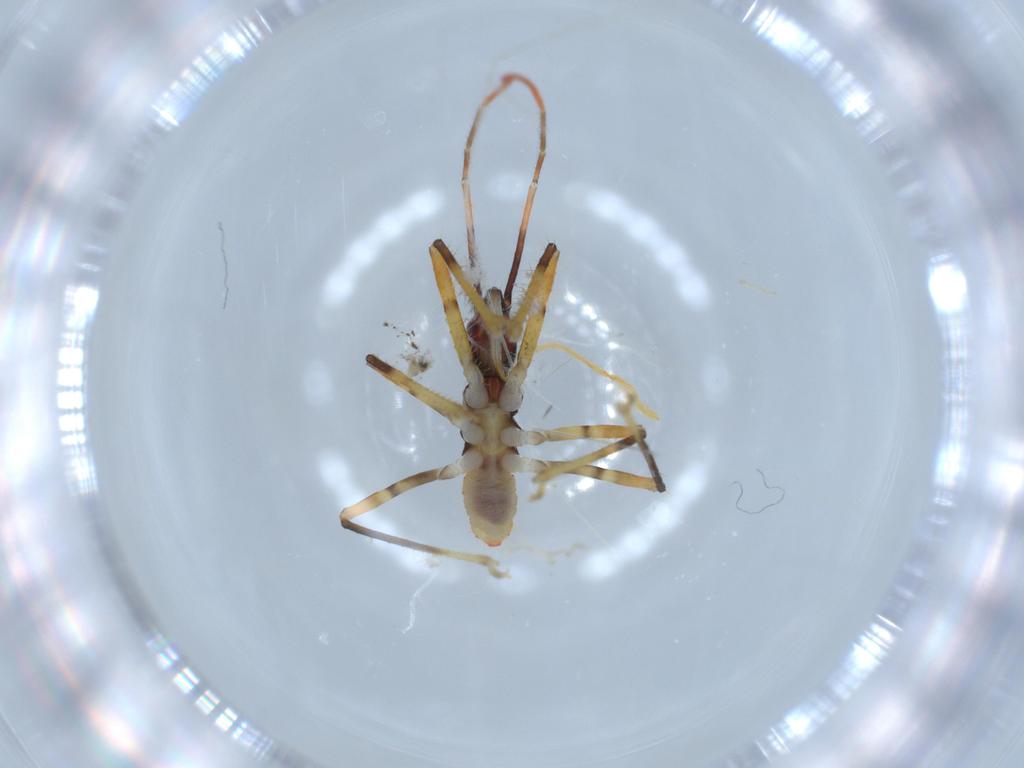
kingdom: Animalia
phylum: Arthropoda
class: Insecta
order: Hemiptera
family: Reduviidae
